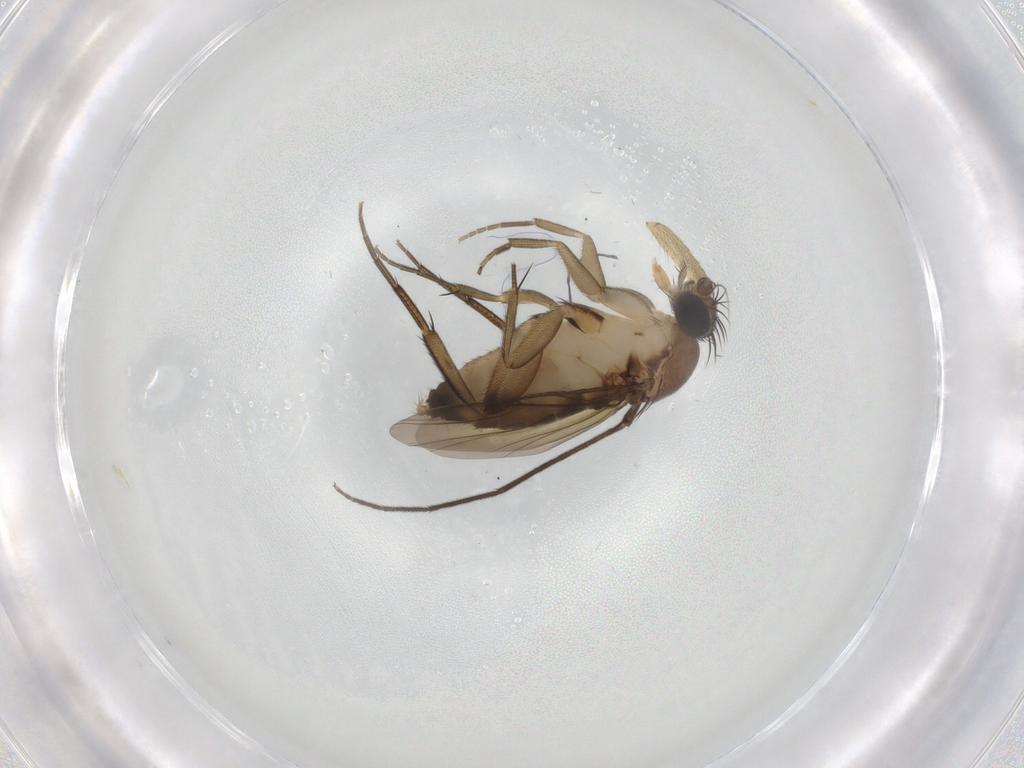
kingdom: Animalia
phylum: Arthropoda
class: Insecta
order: Diptera
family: Phoridae
